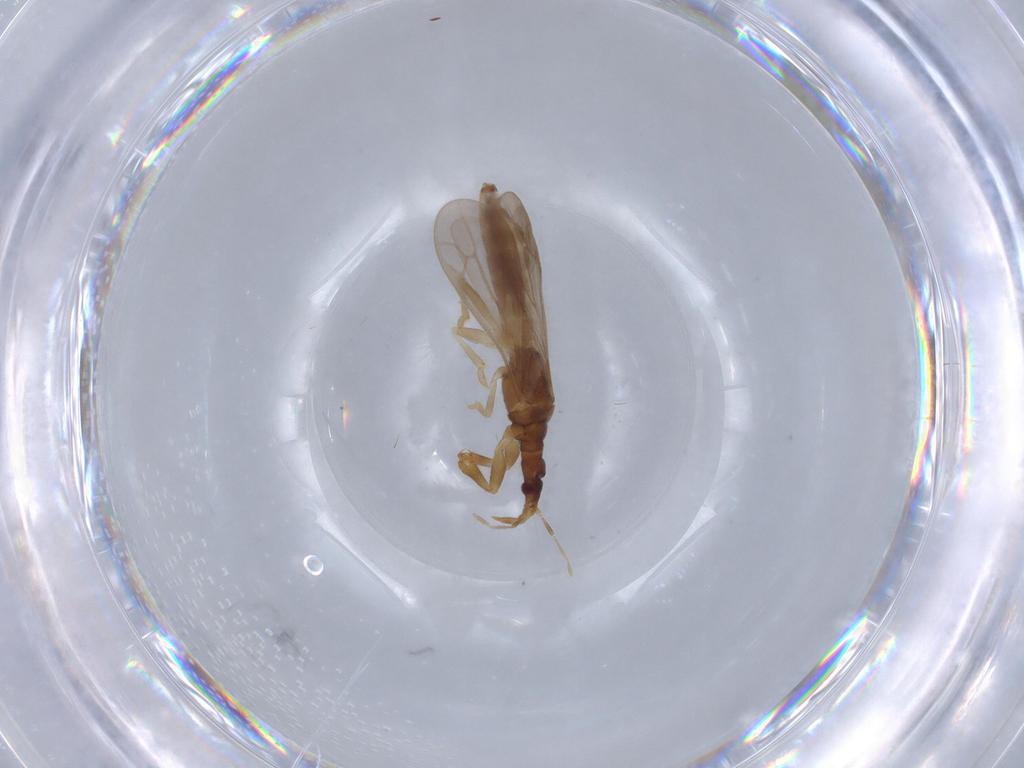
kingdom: Animalia
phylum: Arthropoda
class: Insecta
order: Hemiptera
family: Enicocephalidae
